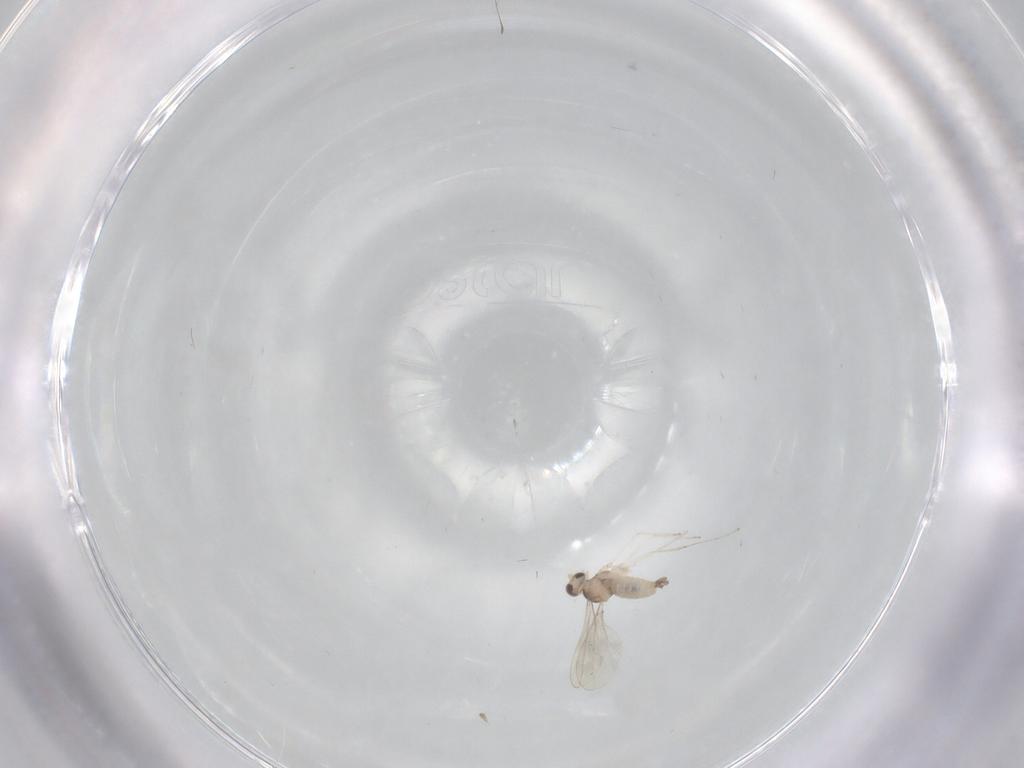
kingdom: Animalia
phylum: Arthropoda
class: Insecta
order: Diptera
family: Cecidomyiidae
